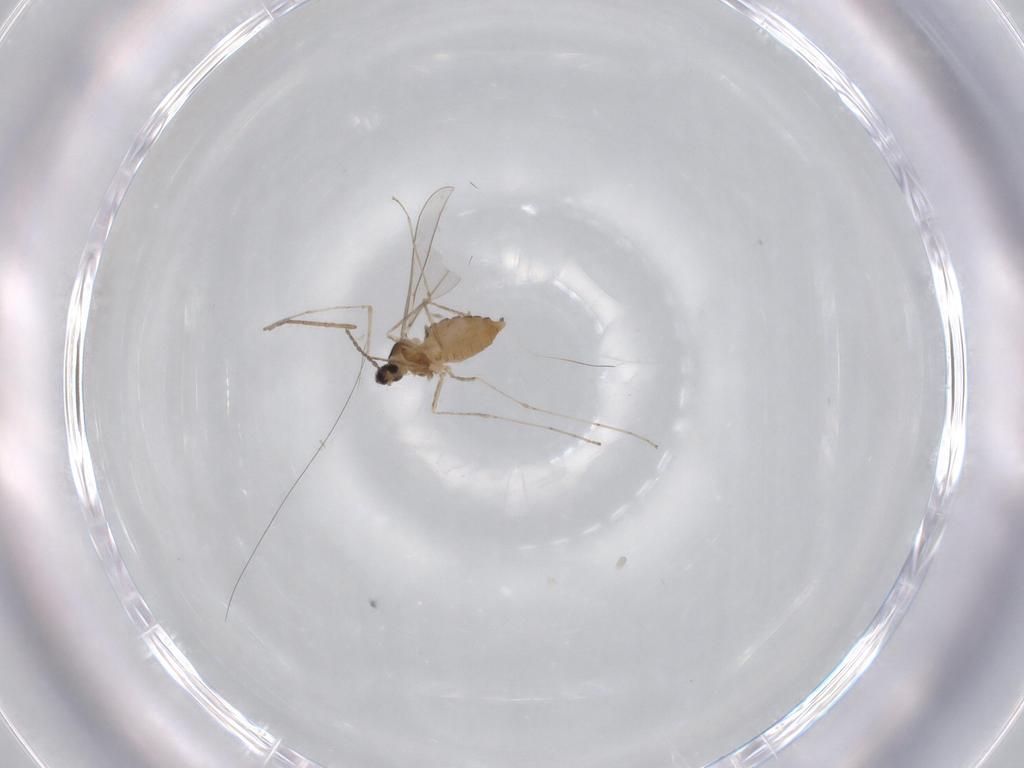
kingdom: Animalia
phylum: Arthropoda
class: Insecta
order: Diptera
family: Cecidomyiidae
